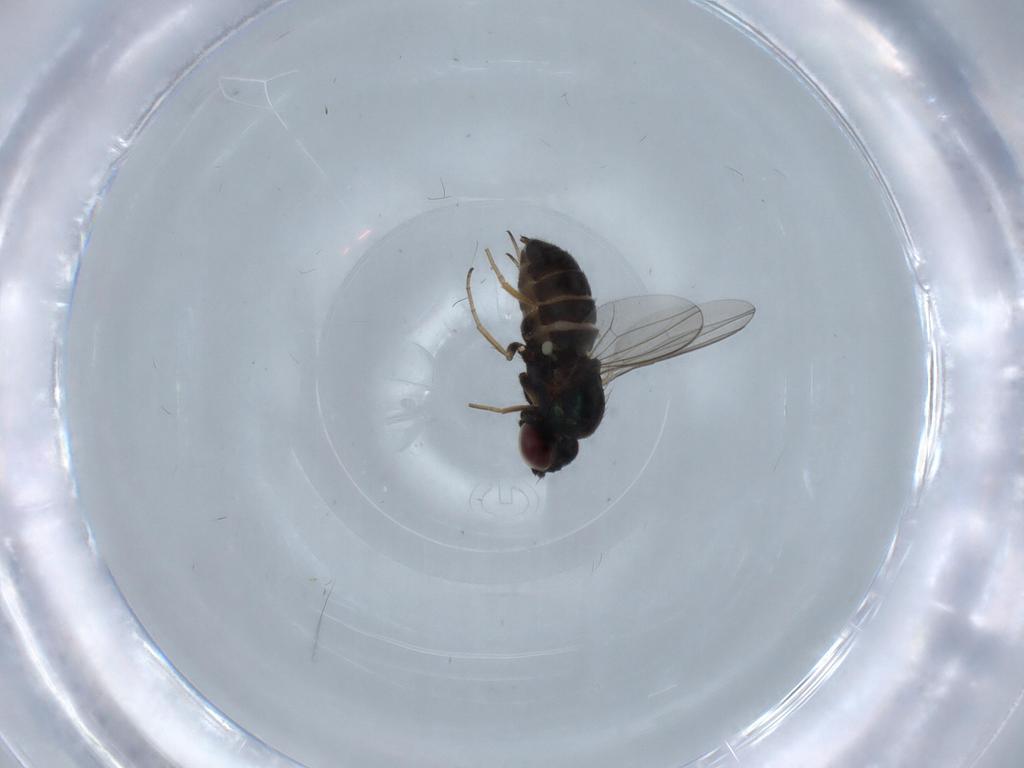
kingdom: Animalia
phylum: Arthropoda
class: Insecta
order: Diptera
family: Dolichopodidae
